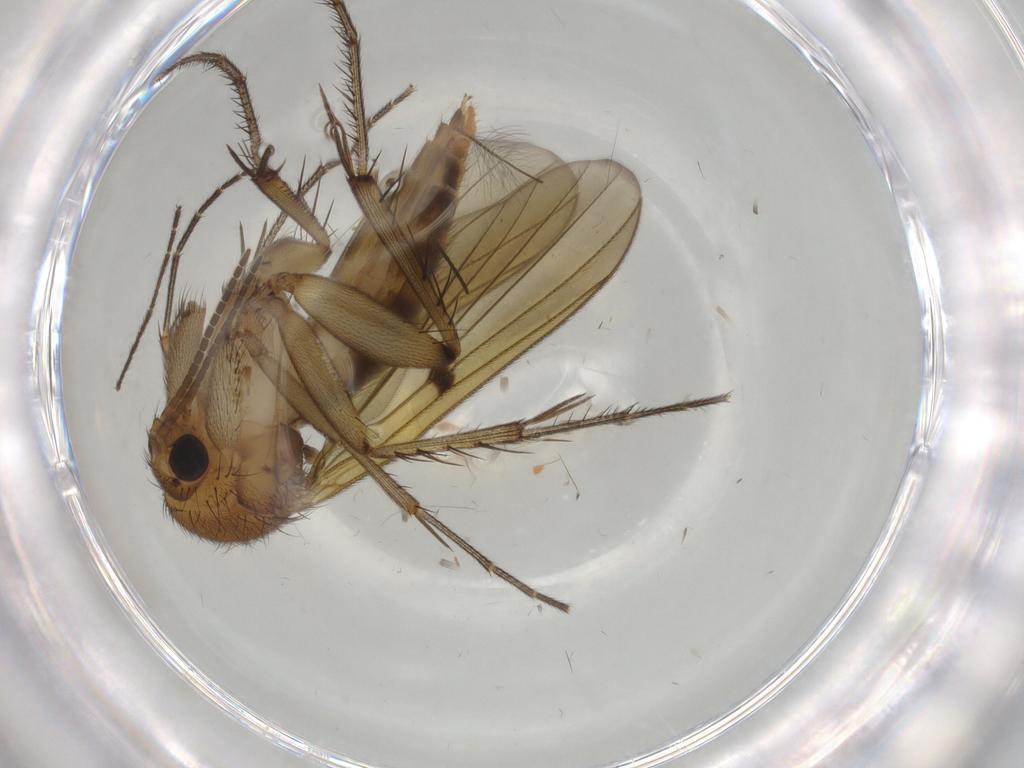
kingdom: Animalia
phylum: Arthropoda
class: Insecta
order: Diptera
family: Mycetophilidae
